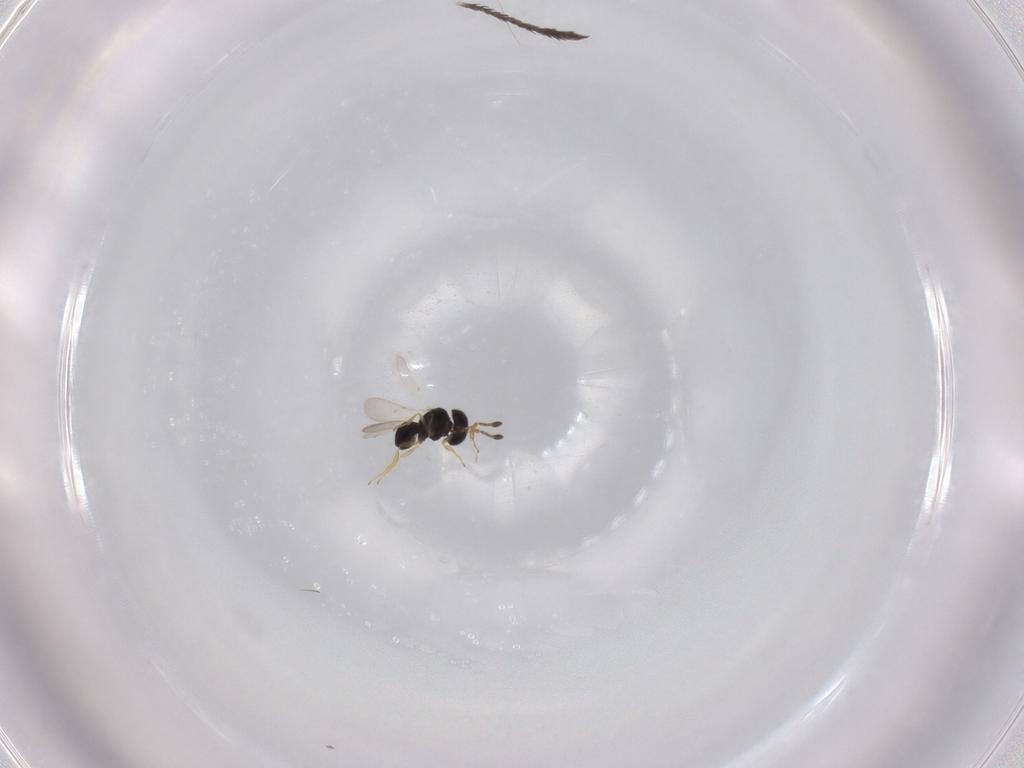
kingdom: Animalia
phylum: Arthropoda
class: Insecta
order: Hymenoptera
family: Scelionidae
